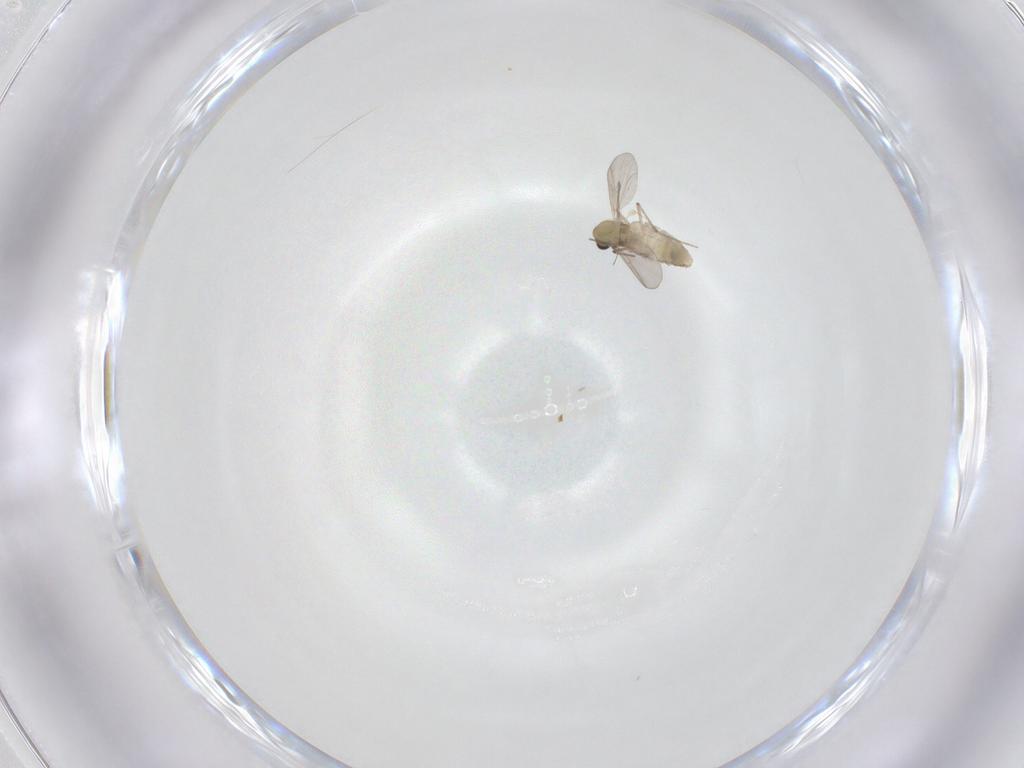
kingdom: Animalia
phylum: Arthropoda
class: Insecta
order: Diptera
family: Chironomidae
